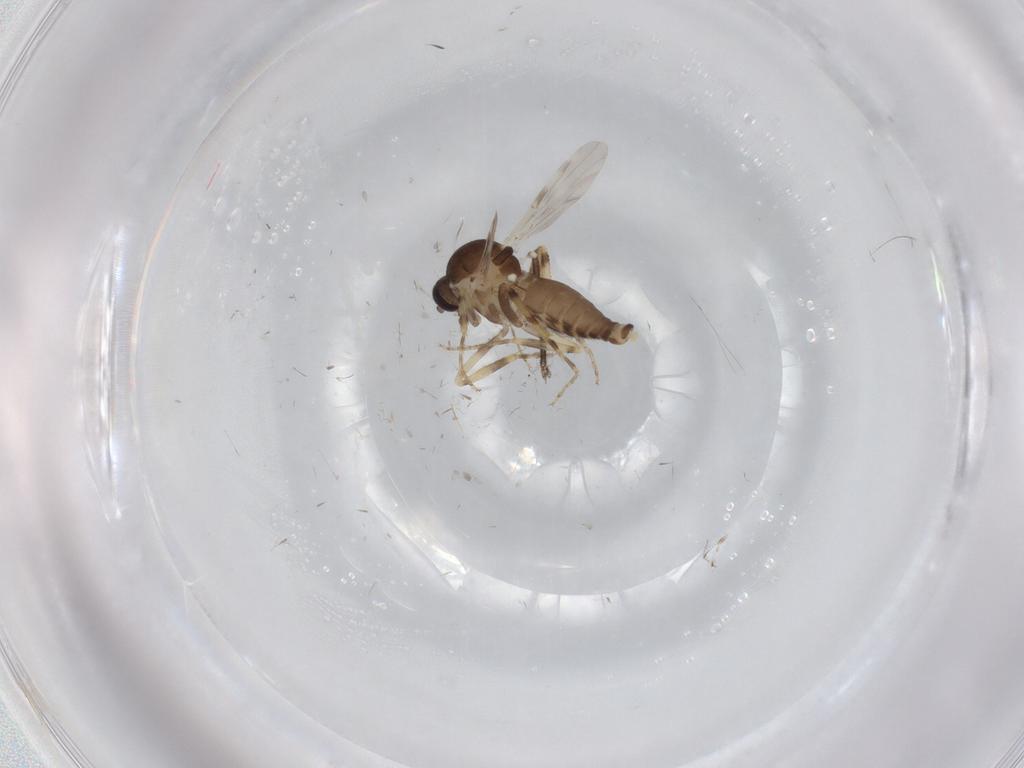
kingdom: Animalia
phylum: Arthropoda
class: Insecta
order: Diptera
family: Ceratopogonidae
